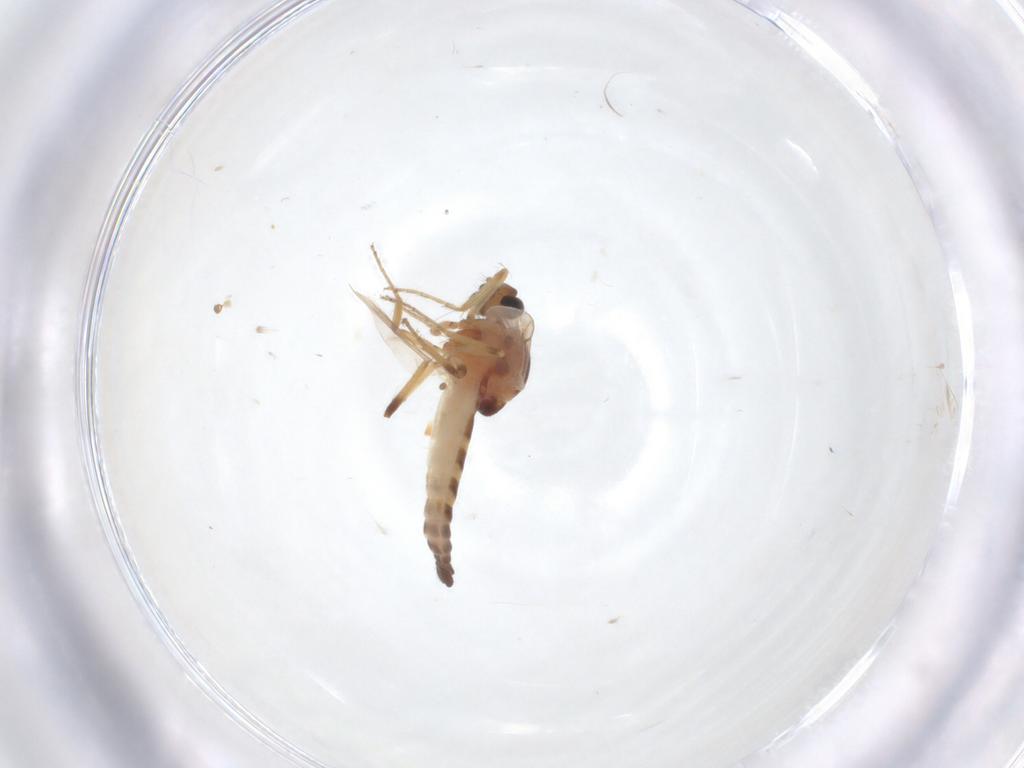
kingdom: Animalia
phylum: Arthropoda
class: Insecta
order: Diptera
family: Ceratopogonidae
